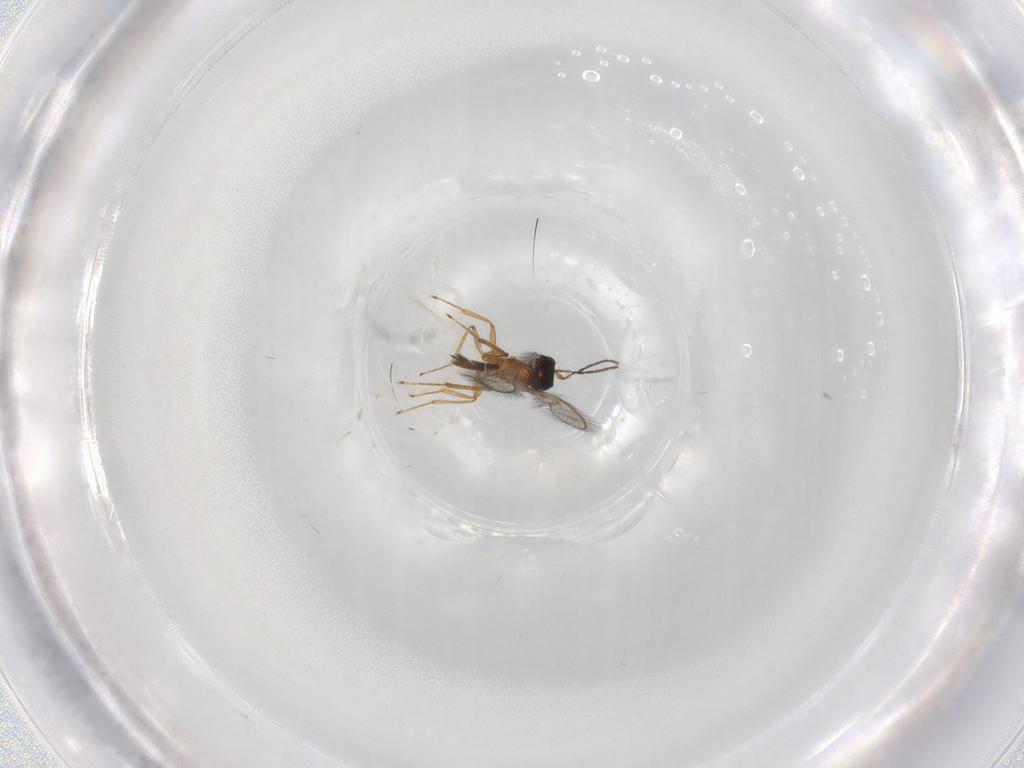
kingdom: Animalia
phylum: Arthropoda
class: Insecta
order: Hymenoptera
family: Mymaridae
